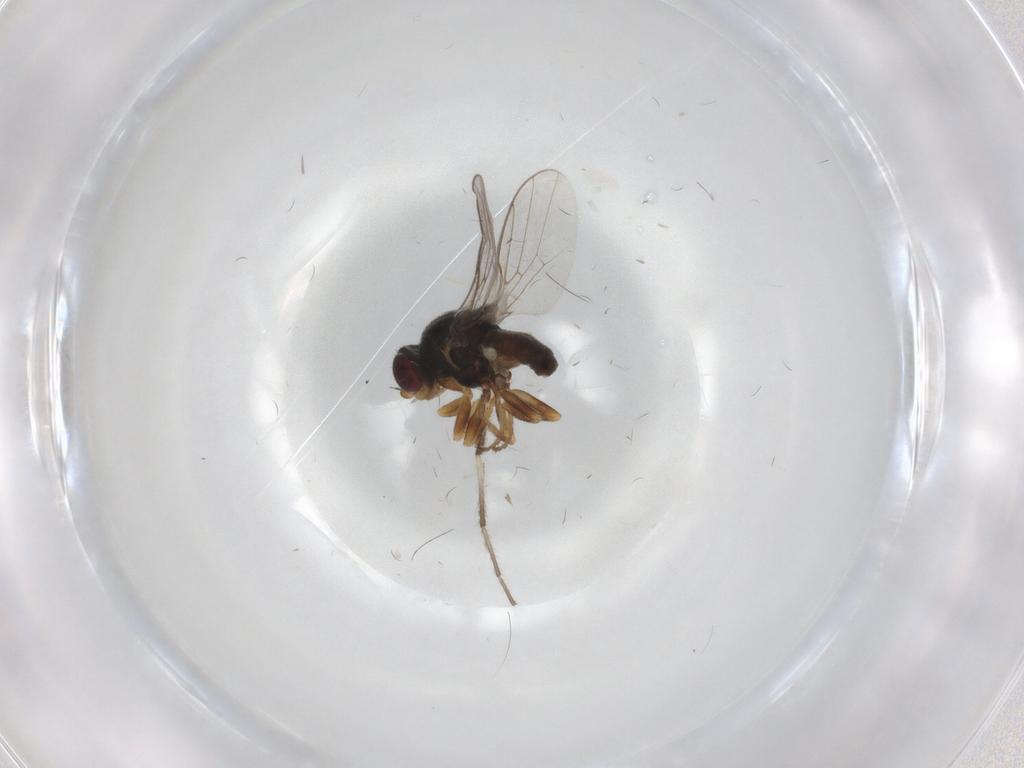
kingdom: Animalia
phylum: Arthropoda
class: Insecta
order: Diptera
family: Chloropidae
